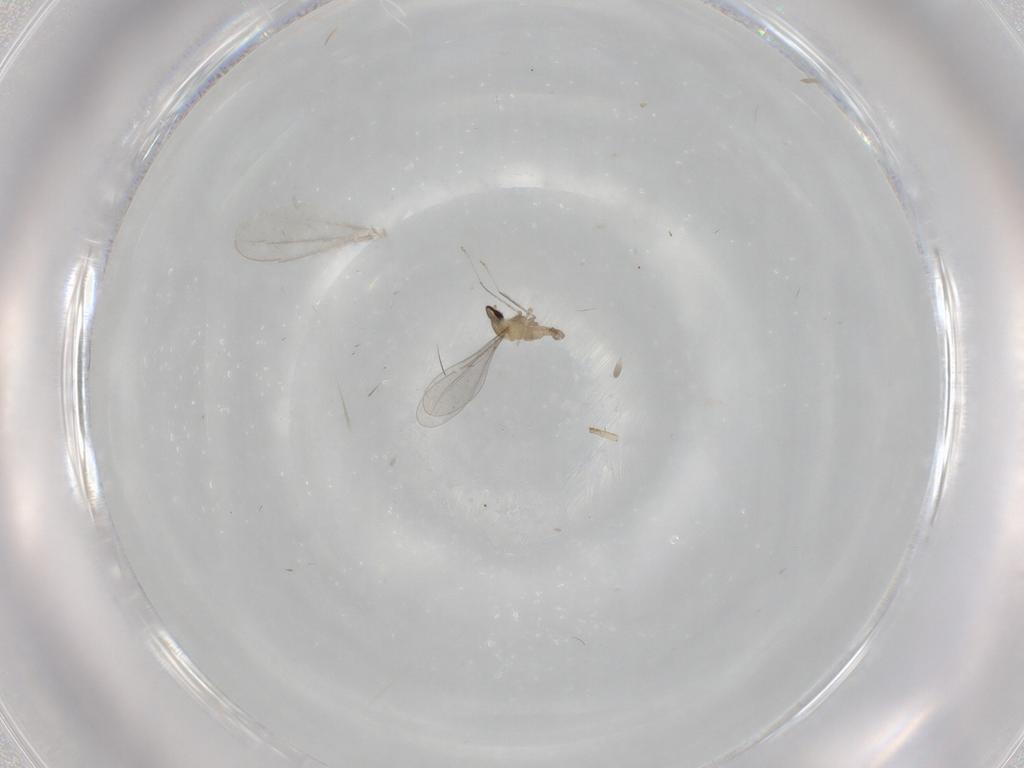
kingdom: Animalia
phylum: Arthropoda
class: Insecta
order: Diptera
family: Cecidomyiidae
